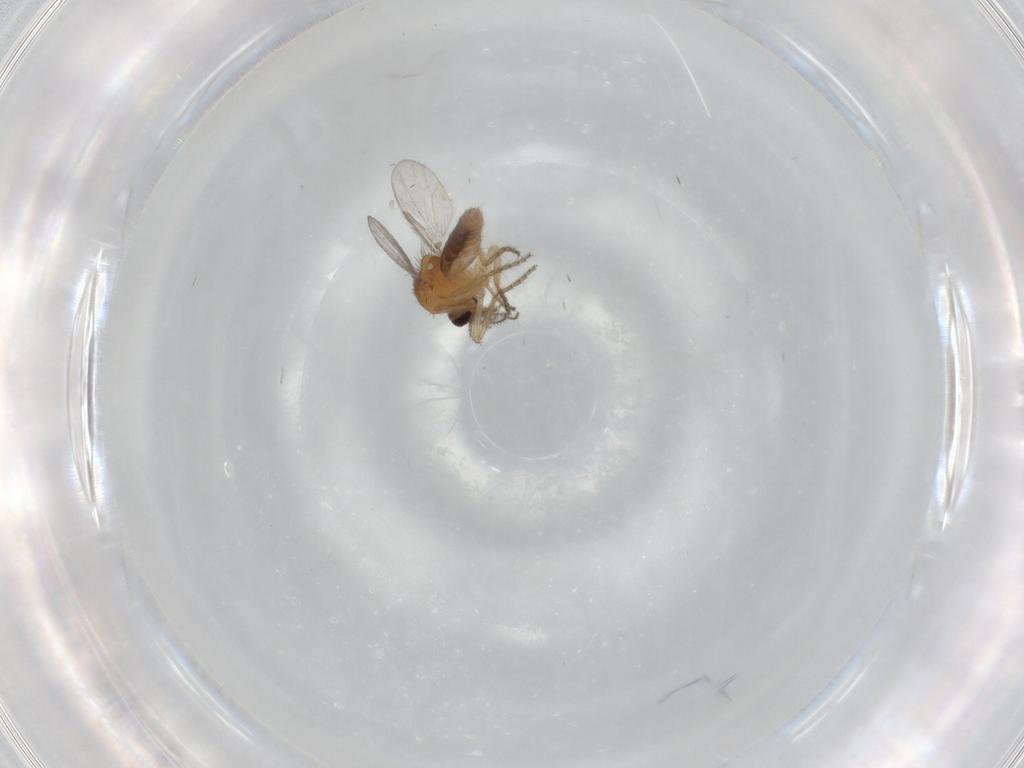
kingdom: Animalia
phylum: Arthropoda
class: Insecta
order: Diptera
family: Ceratopogonidae
